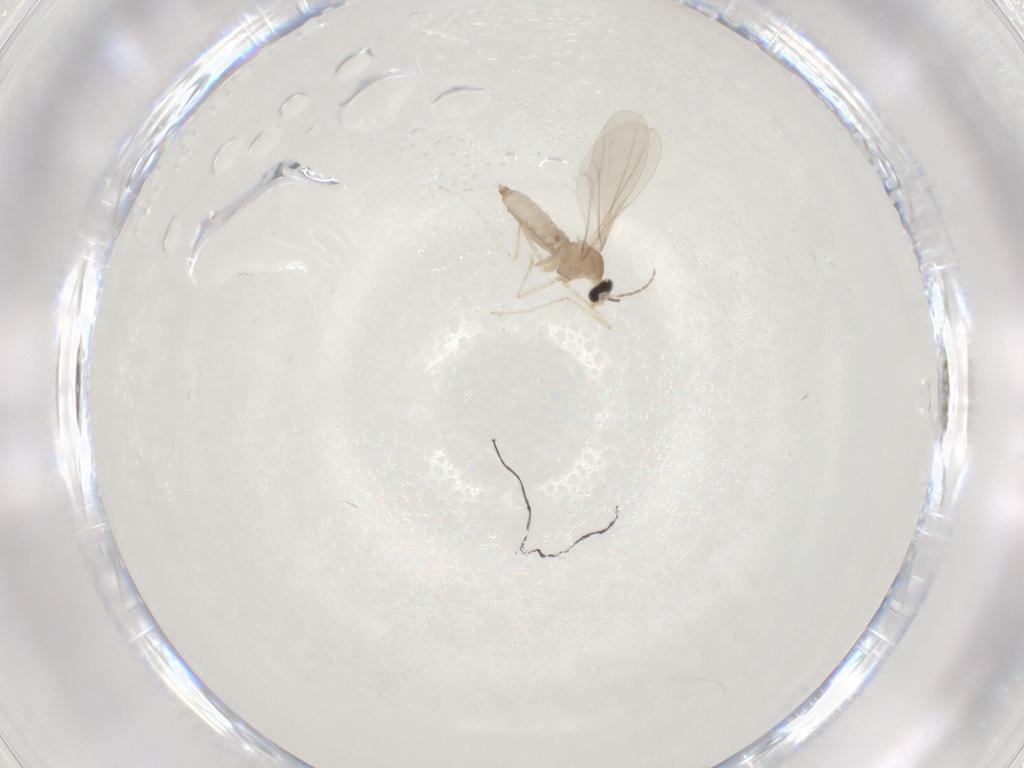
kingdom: Animalia
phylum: Arthropoda
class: Insecta
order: Diptera
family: Cecidomyiidae
